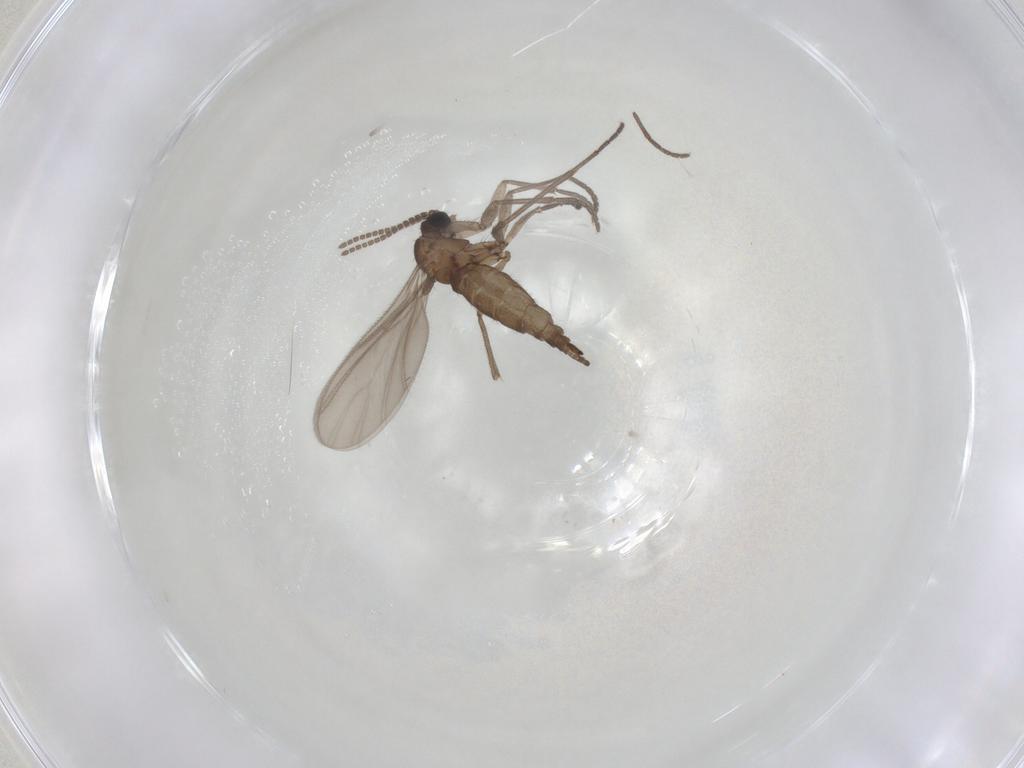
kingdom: Animalia
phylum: Arthropoda
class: Insecta
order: Diptera
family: Sciaridae
